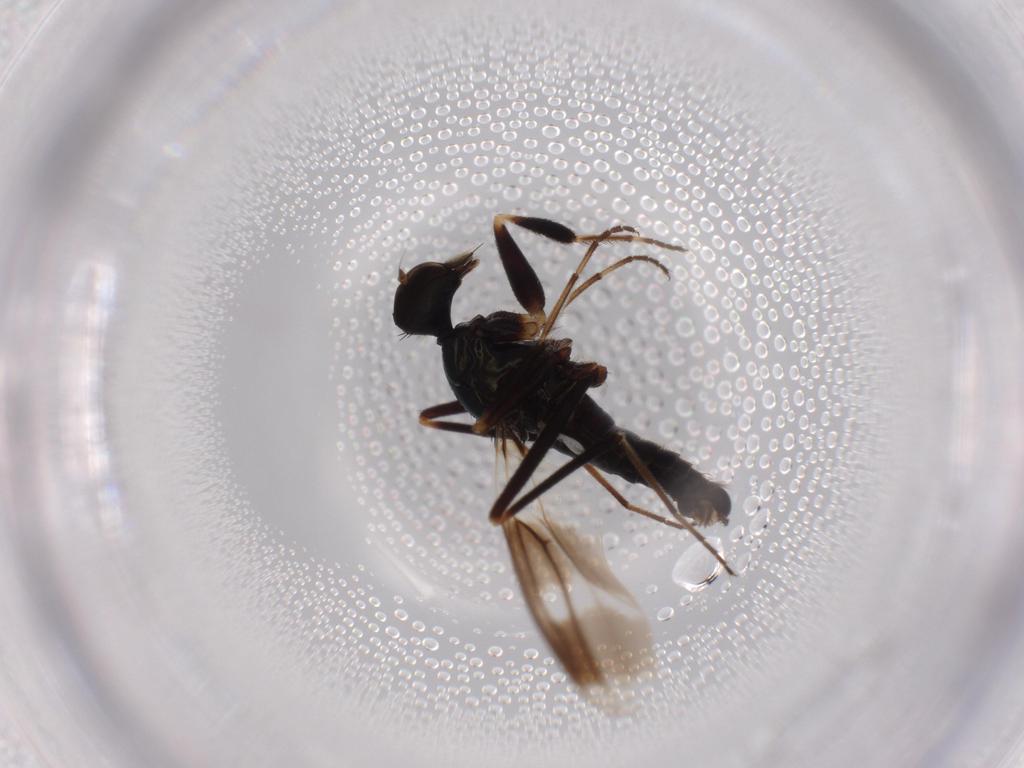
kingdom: Animalia
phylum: Arthropoda
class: Insecta
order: Diptera
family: Hybotidae
